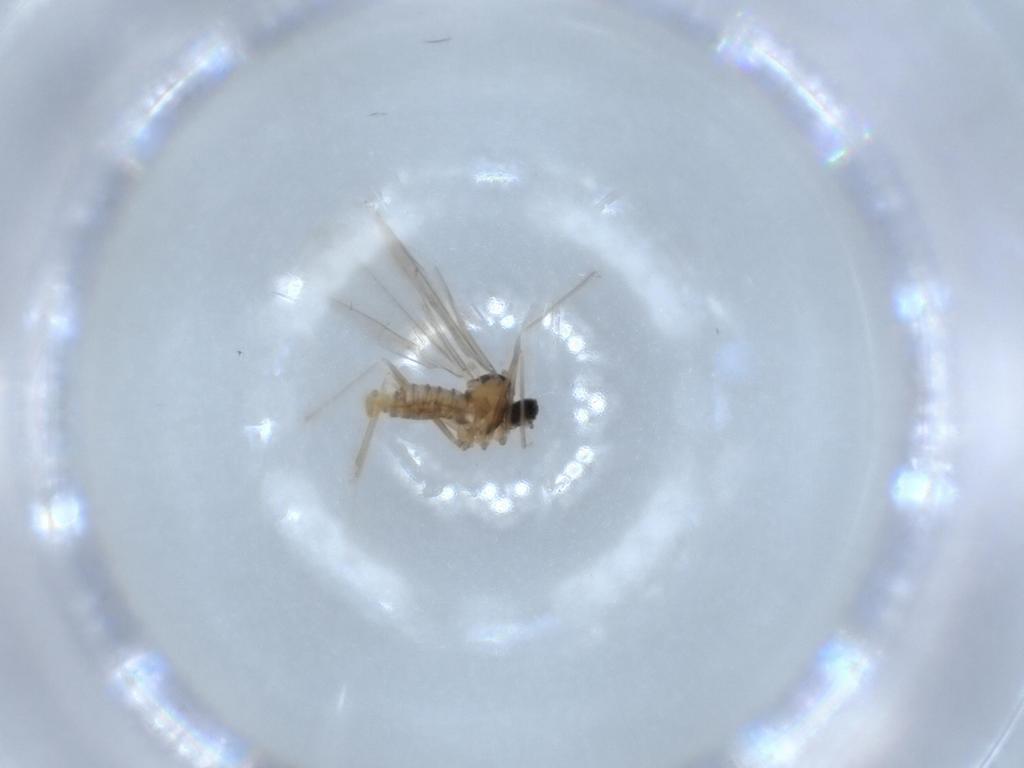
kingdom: Animalia
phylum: Arthropoda
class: Insecta
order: Diptera
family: Cecidomyiidae
